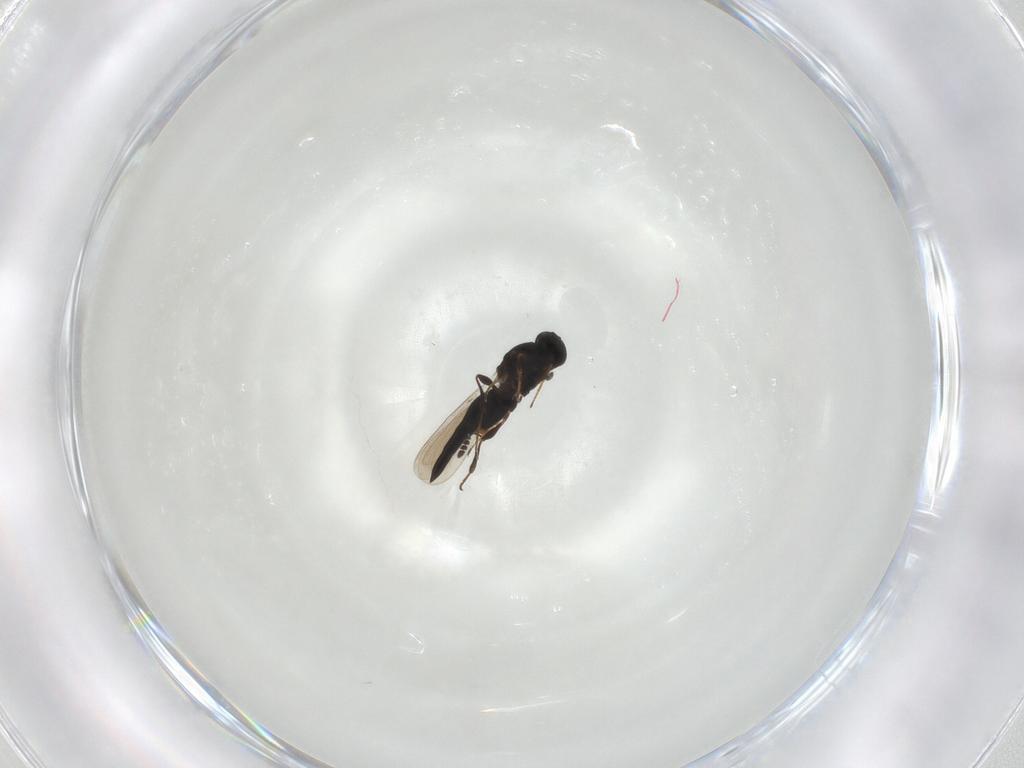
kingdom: Animalia
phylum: Arthropoda
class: Insecta
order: Hymenoptera
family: Platygastridae
